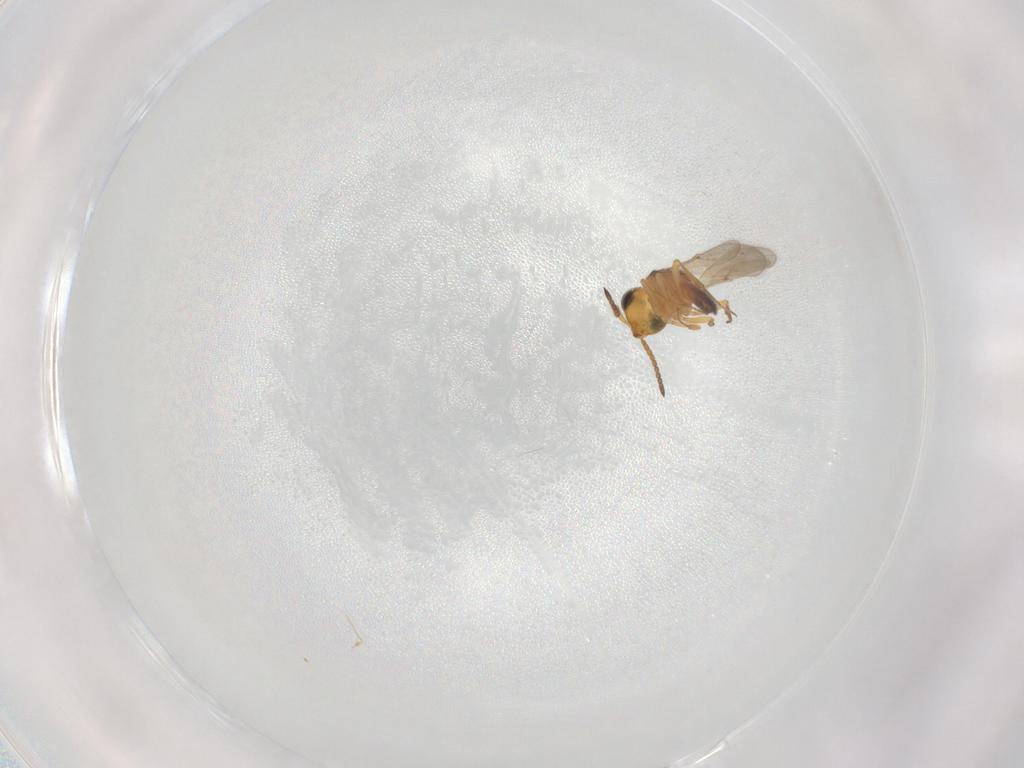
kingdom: Animalia
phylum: Arthropoda
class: Insecta
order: Hymenoptera
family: Scelionidae
